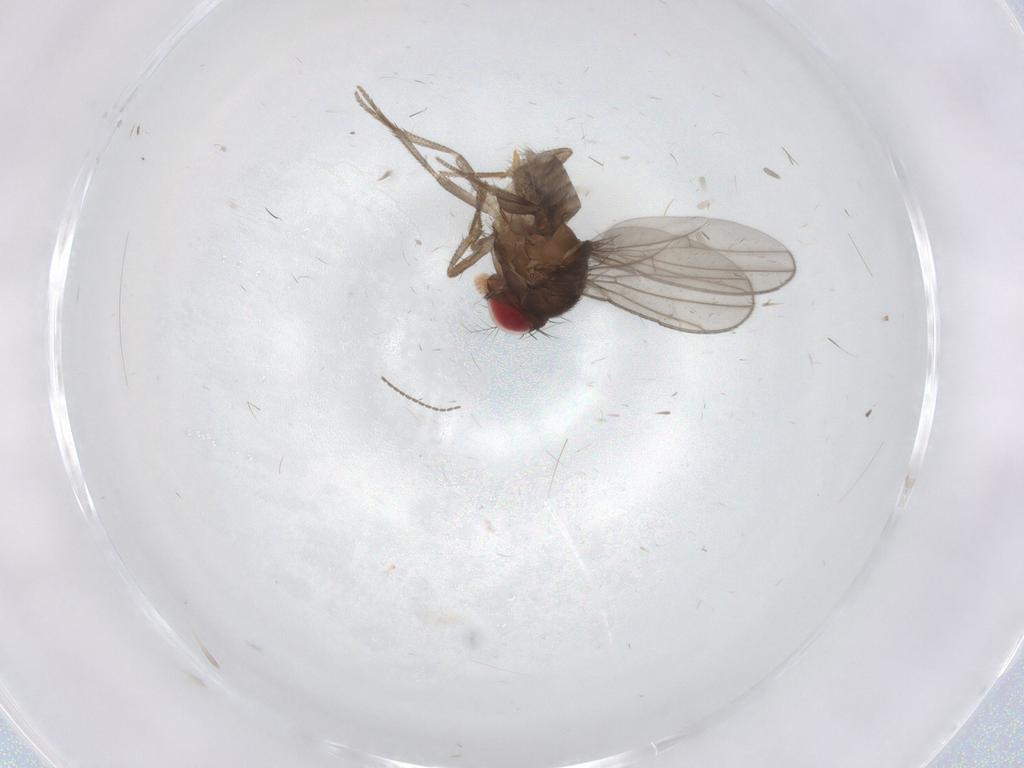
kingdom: Animalia
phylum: Arthropoda
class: Insecta
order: Diptera
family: Drosophilidae
